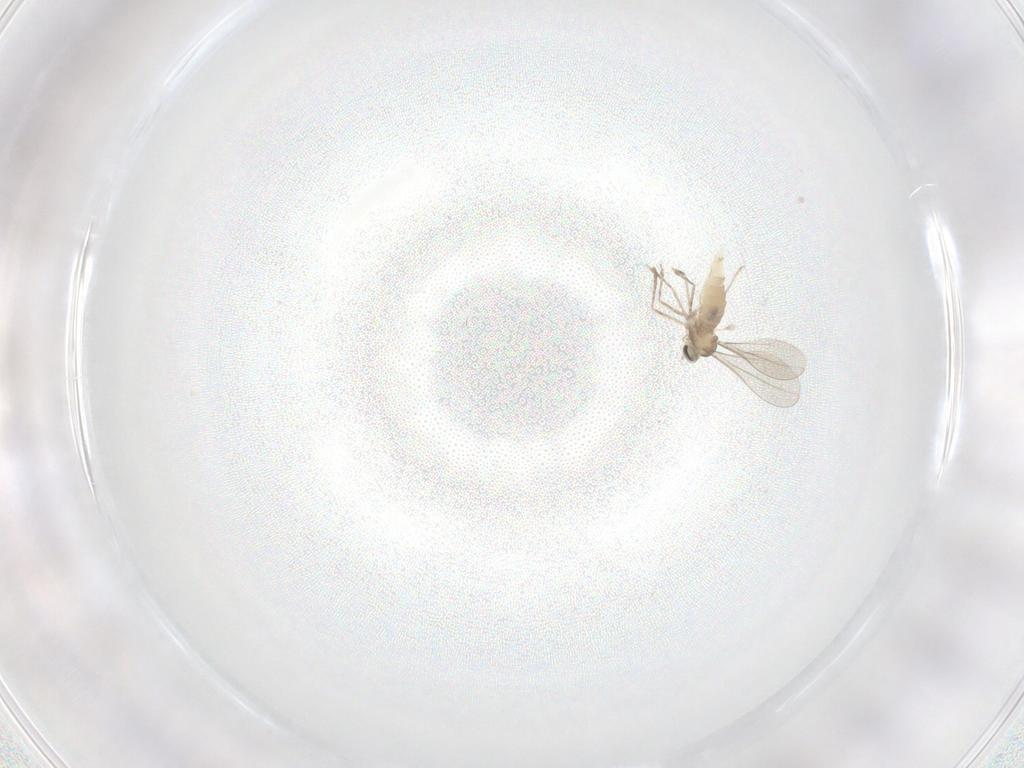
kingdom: Animalia
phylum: Arthropoda
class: Insecta
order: Diptera
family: Cecidomyiidae
